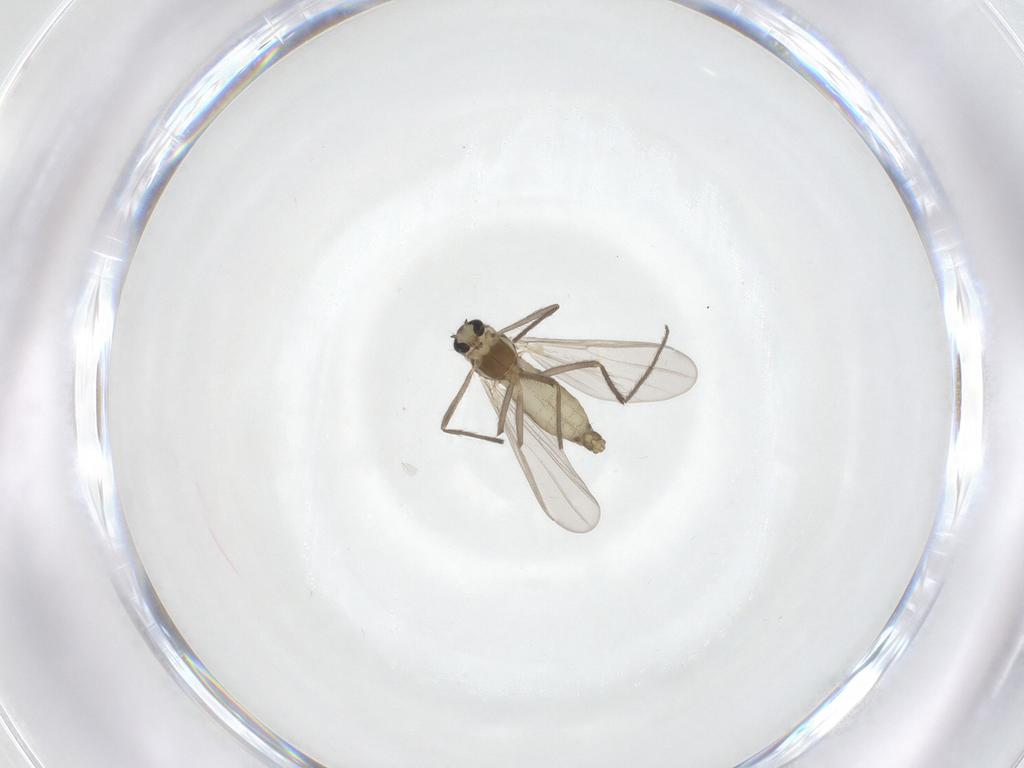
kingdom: Animalia
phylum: Arthropoda
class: Insecta
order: Diptera
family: Chironomidae
